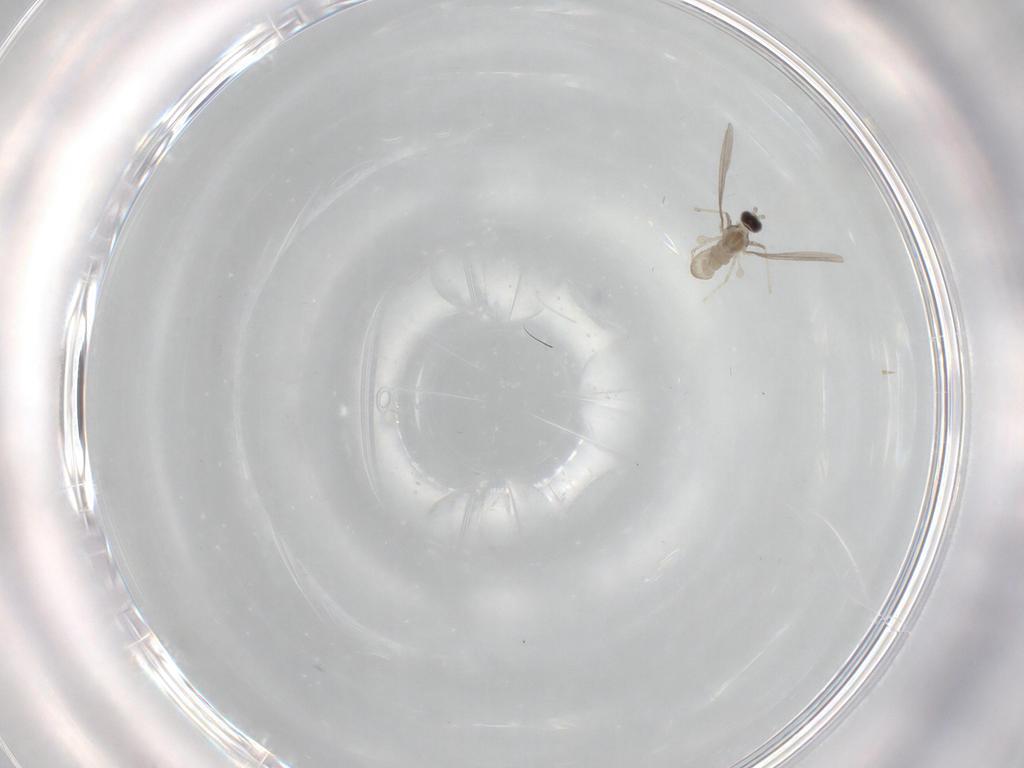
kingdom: Animalia
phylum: Arthropoda
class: Insecta
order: Diptera
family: Cecidomyiidae
